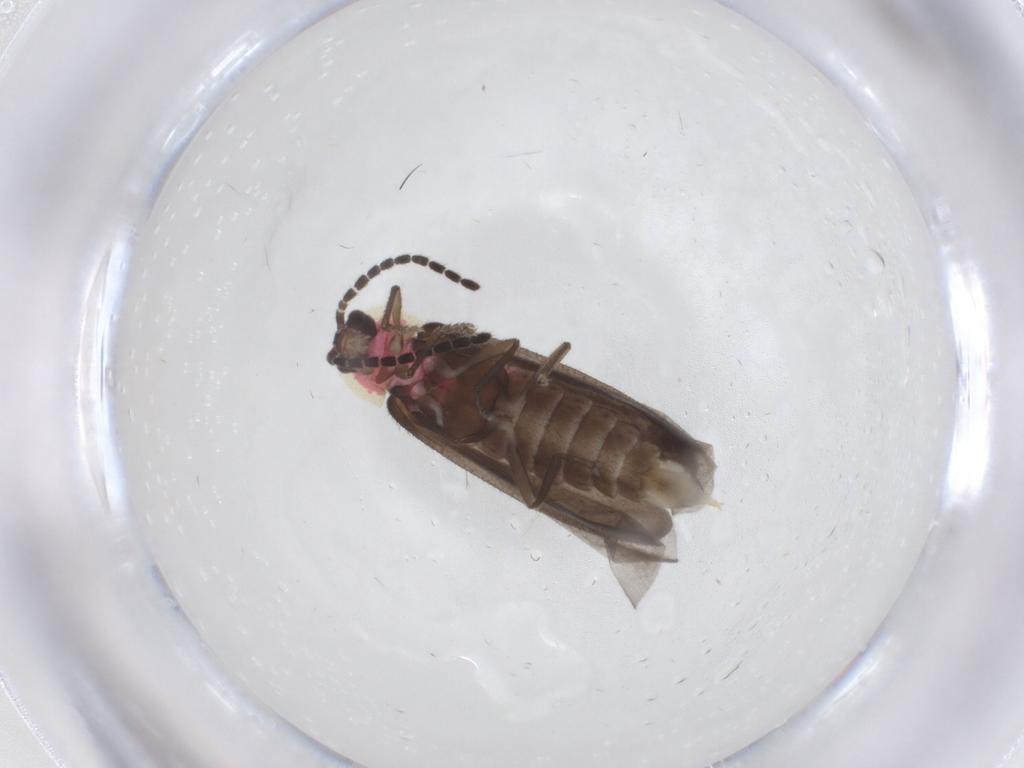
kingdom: Animalia
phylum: Arthropoda
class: Insecta
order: Coleoptera
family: Lampyridae
